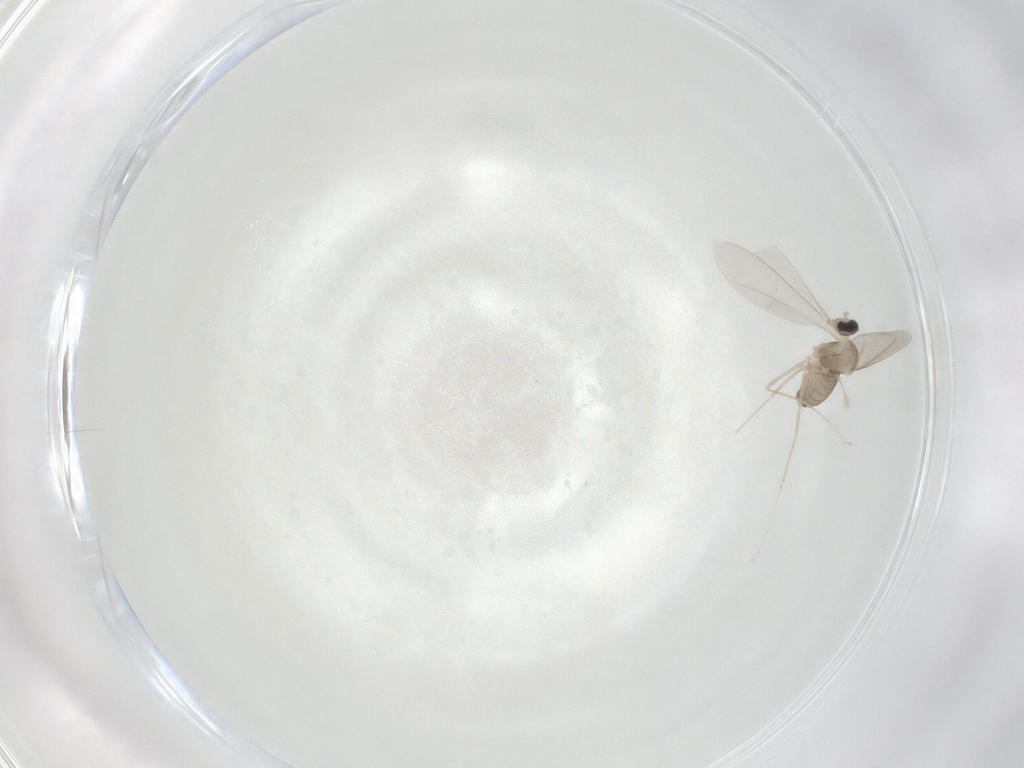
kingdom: Animalia
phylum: Arthropoda
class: Insecta
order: Diptera
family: Cecidomyiidae
